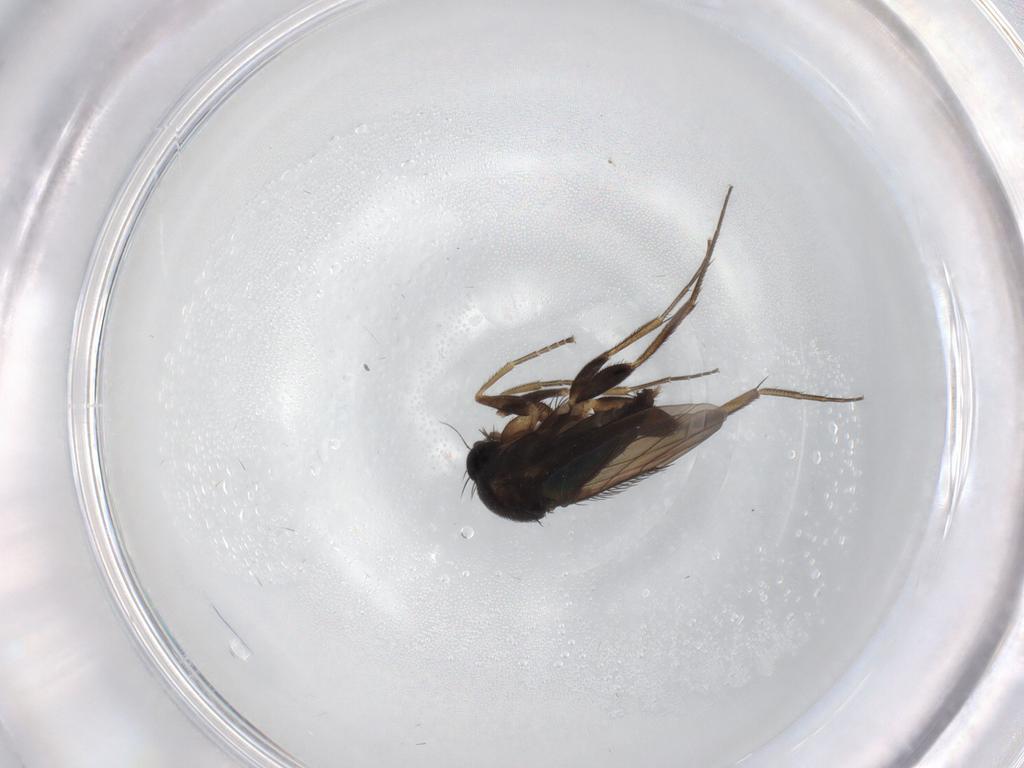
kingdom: Animalia
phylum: Arthropoda
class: Insecta
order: Diptera
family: Phoridae
